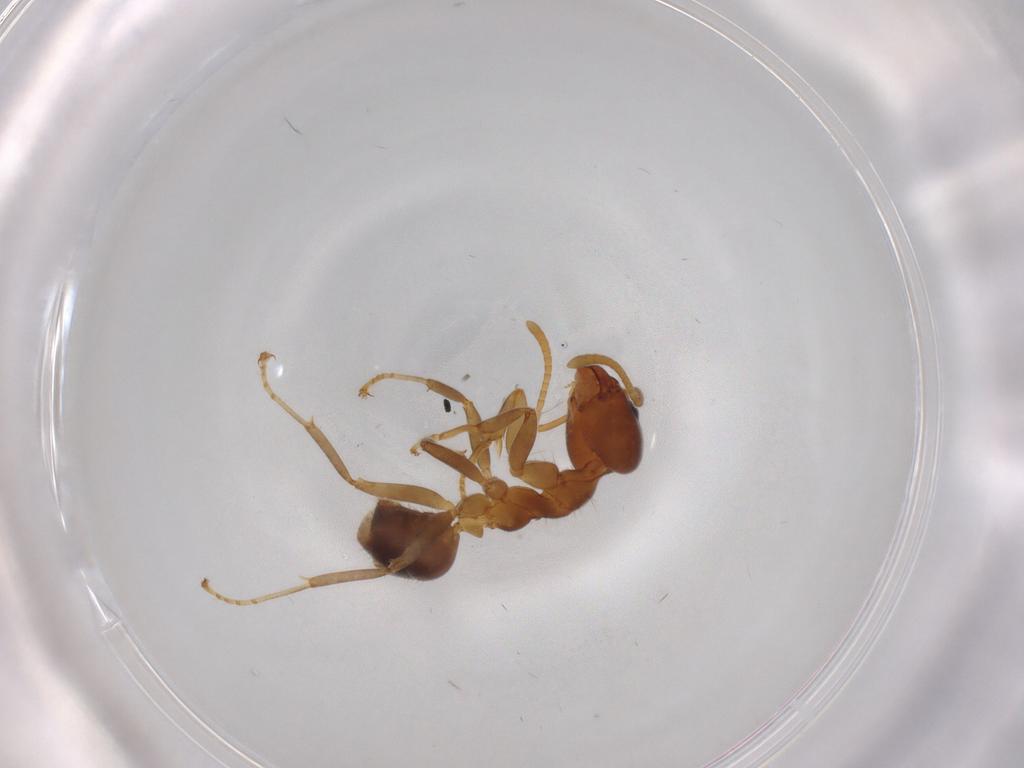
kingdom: Animalia
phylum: Arthropoda
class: Insecta
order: Hymenoptera
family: Formicidae
